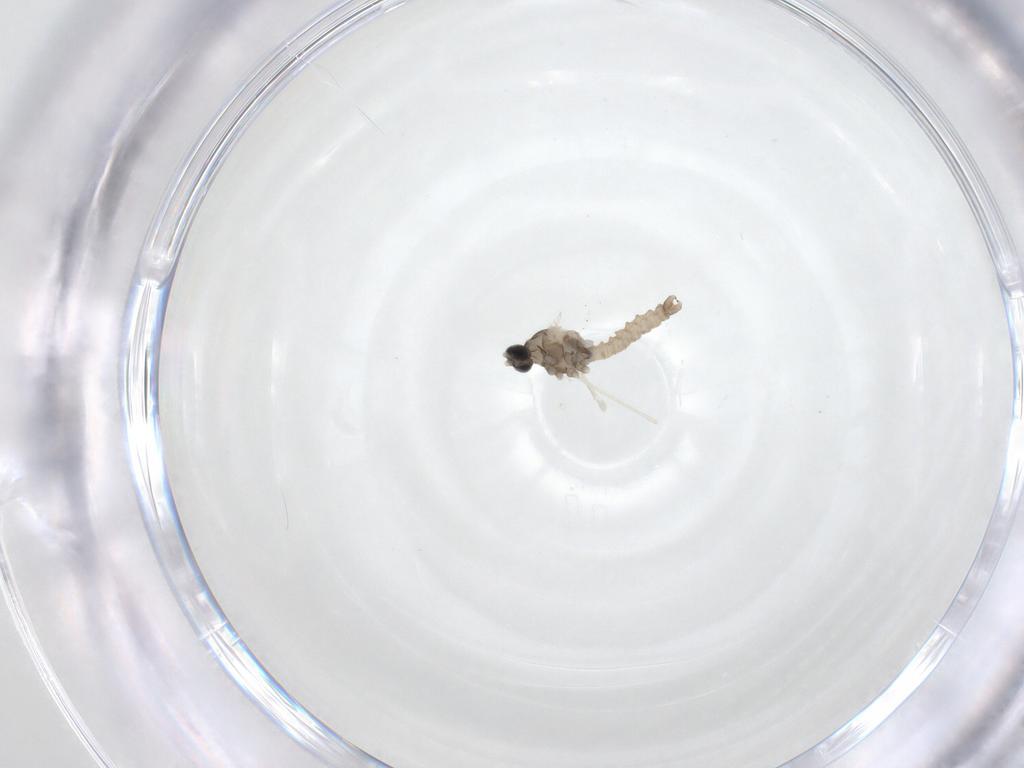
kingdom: Animalia
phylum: Arthropoda
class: Insecta
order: Diptera
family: Cecidomyiidae
